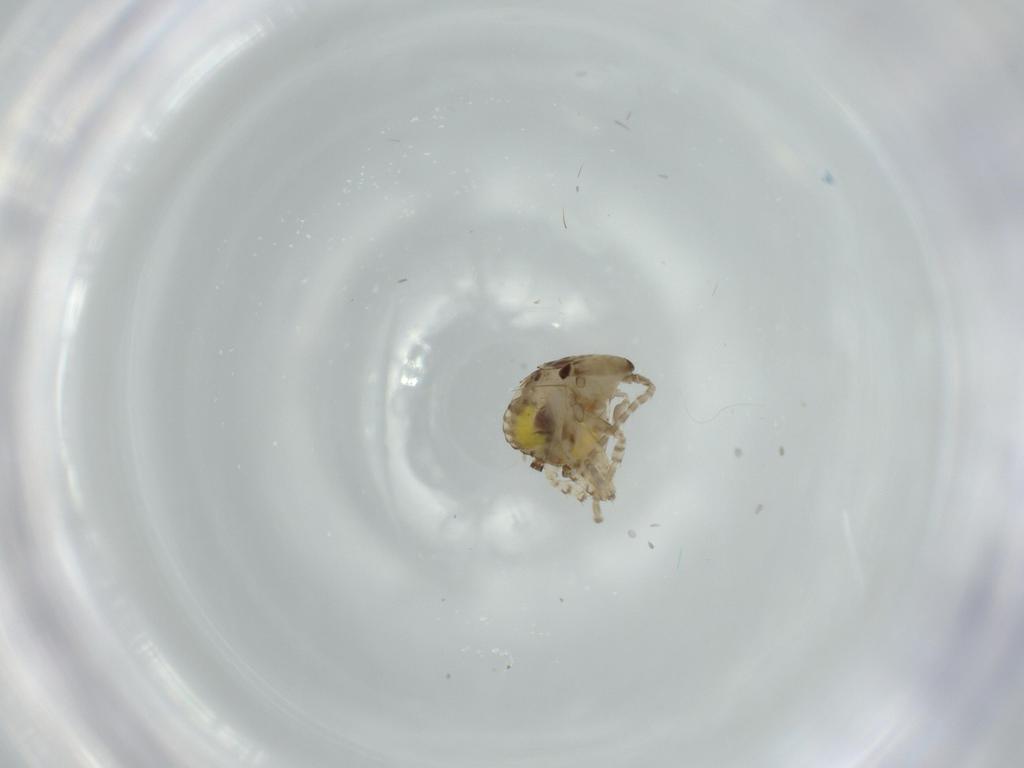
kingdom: Animalia
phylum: Arthropoda
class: Insecta
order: Blattodea
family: Ectobiidae
